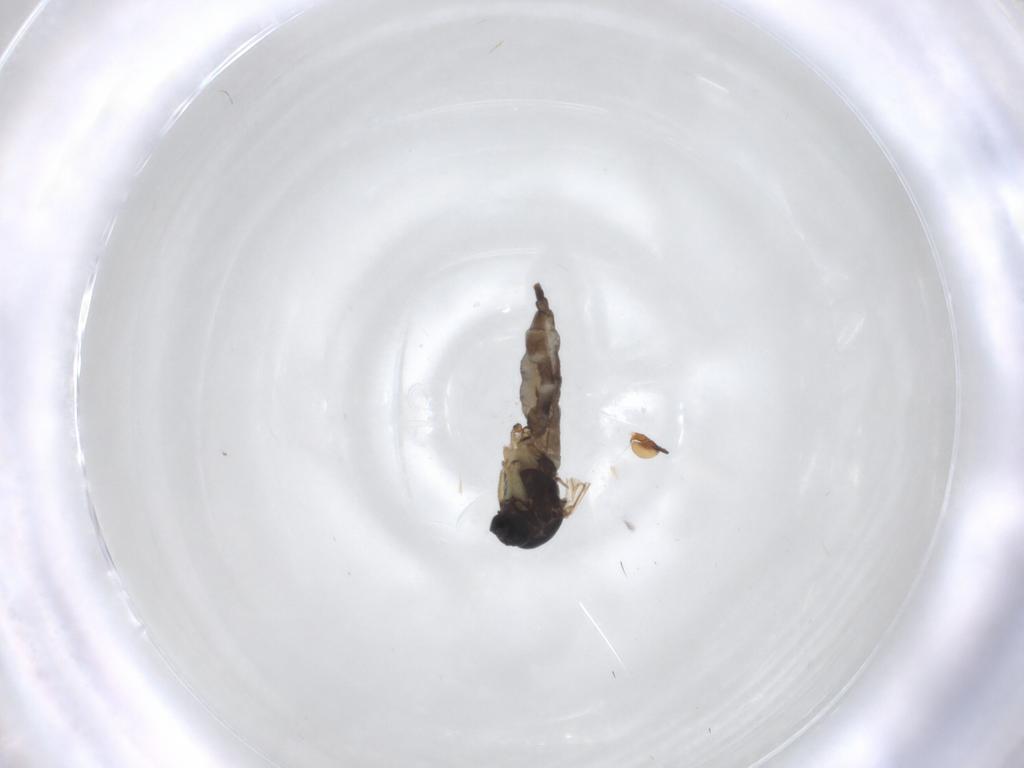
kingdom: Animalia
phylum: Arthropoda
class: Insecta
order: Diptera
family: Sciaridae
